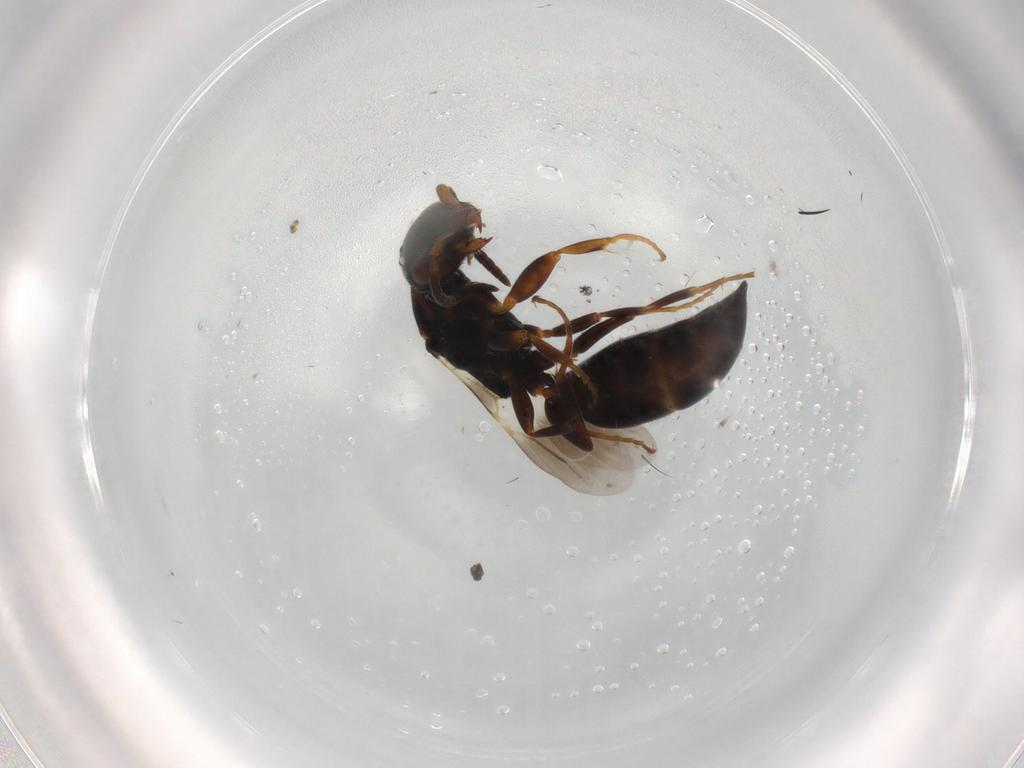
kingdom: Animalia
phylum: Arthropoda
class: Insecta
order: Hymenoptera
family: Bethylidae
